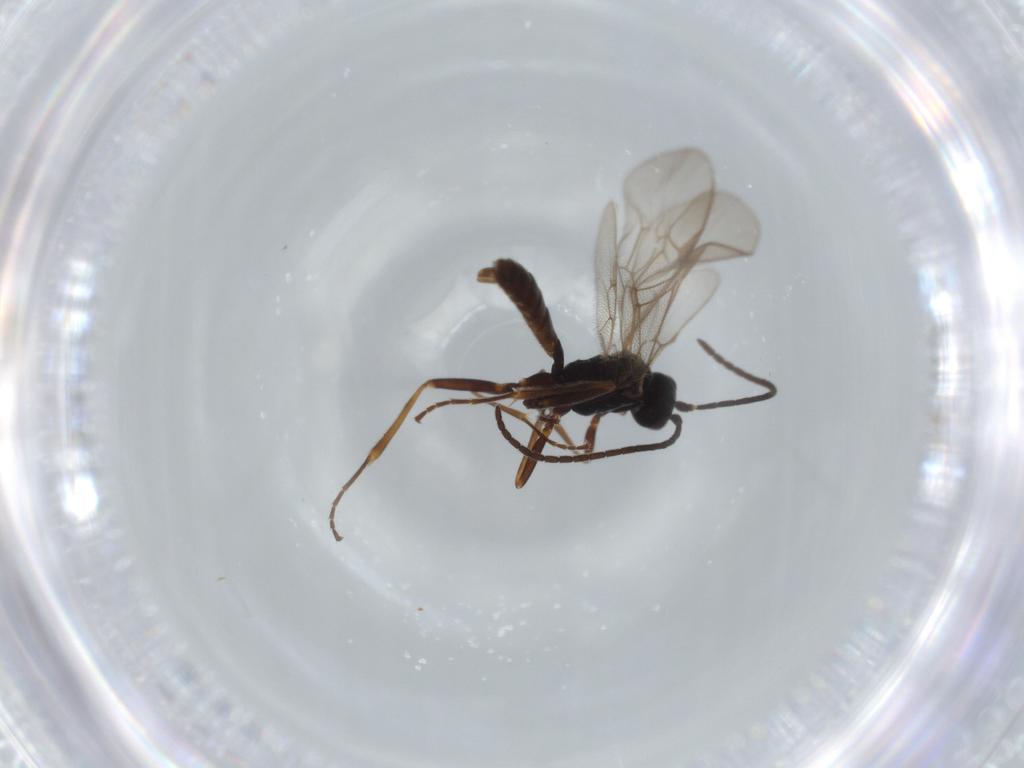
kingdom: Animalia
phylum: Arthropoda
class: Insecta
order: Hymenoptera
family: Ichneumonidae
